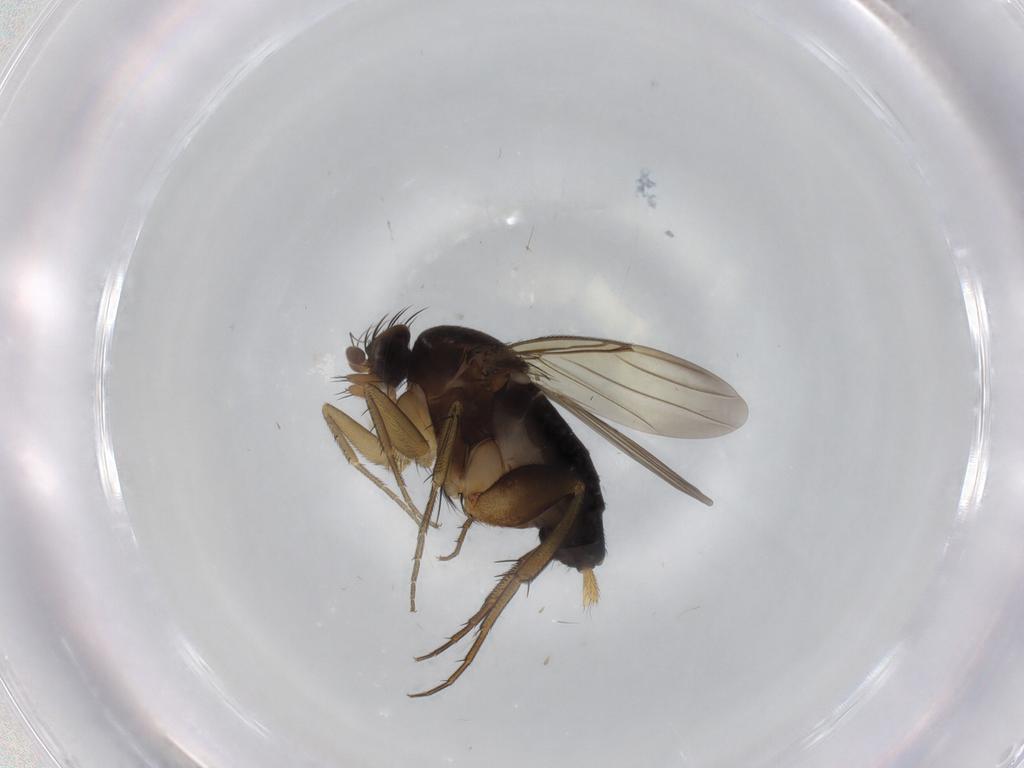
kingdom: Animalia
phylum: Arthropoda
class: Insecta
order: Diptera
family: Phoridae
